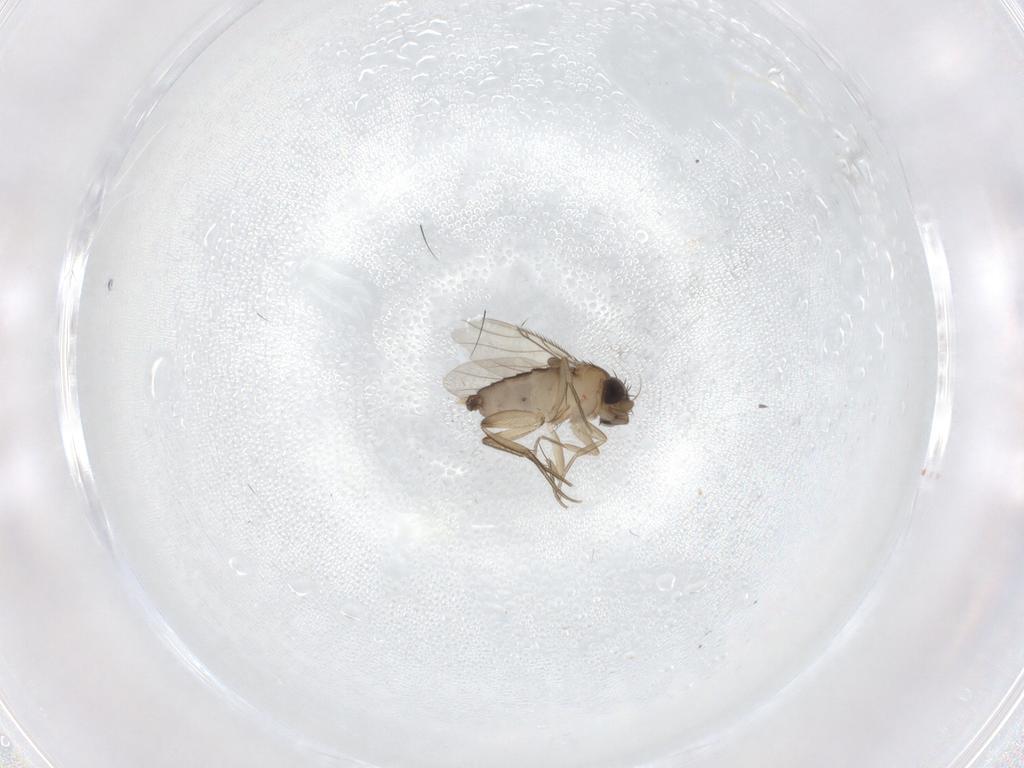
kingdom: Animalia
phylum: Arthropoda
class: Insecta
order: Diptera
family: Phoridae
